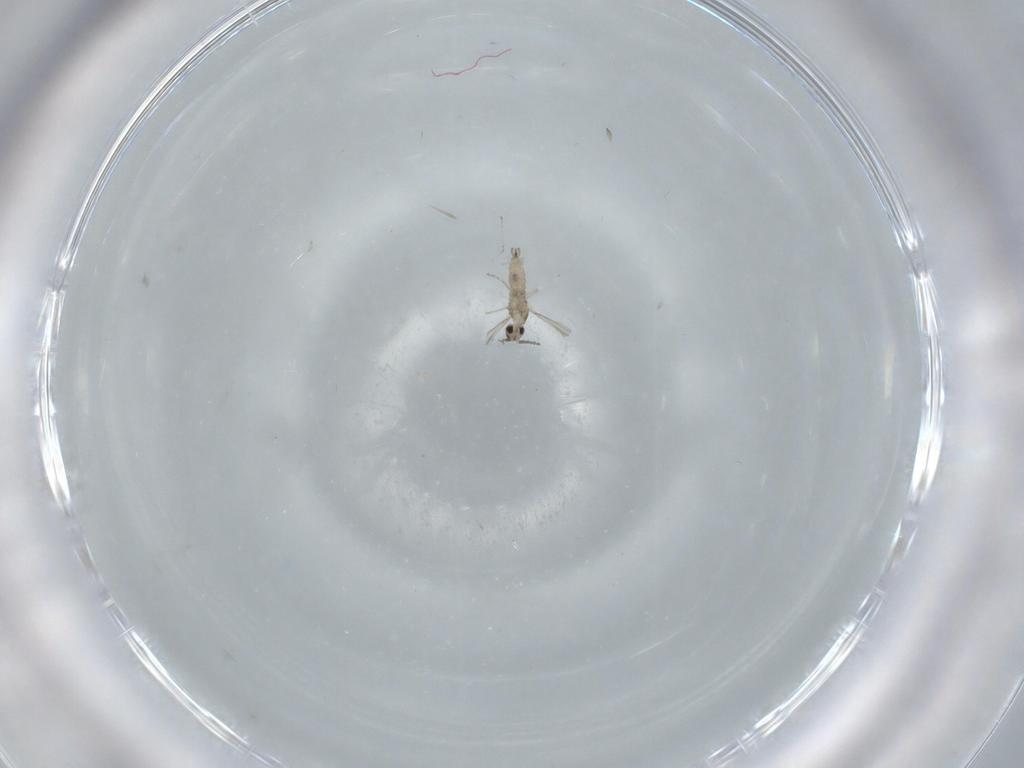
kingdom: Animalia
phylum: Arthropoda
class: Insecta
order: Diptera
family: Cecidomyiidae
